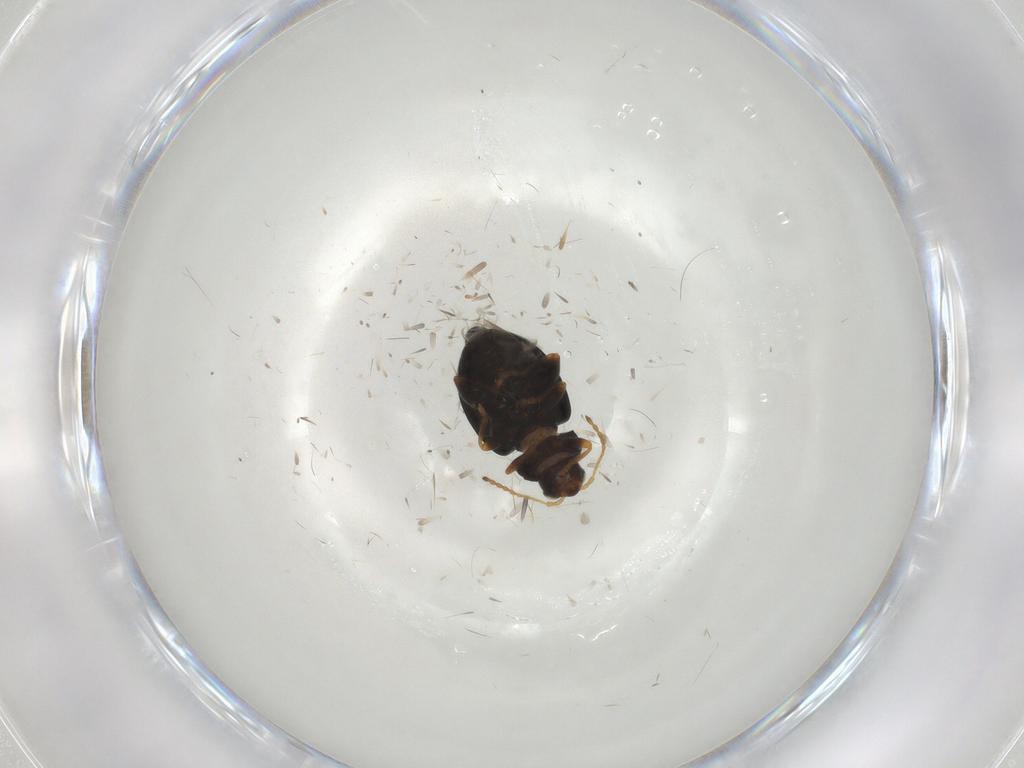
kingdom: Animalia
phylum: Arthropoda
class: Insecta
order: Coleoptera
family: Chrysomelidae
